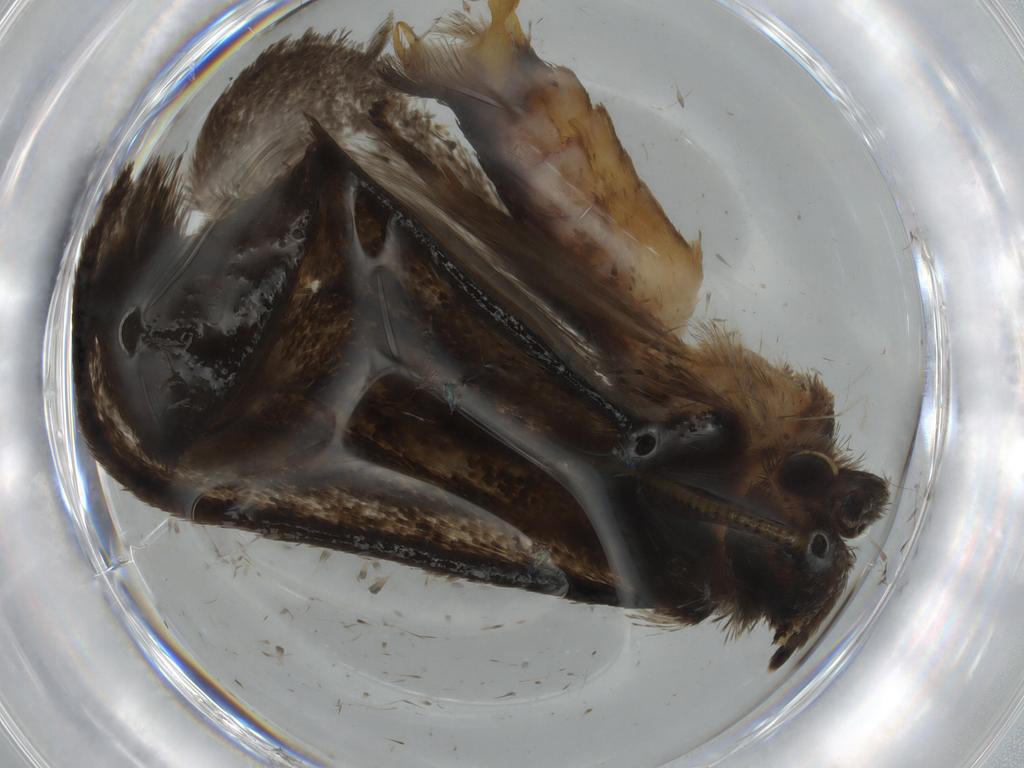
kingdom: Animalia
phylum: Arthropoda
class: Insecta
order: Lepidoptera
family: Tineidae
